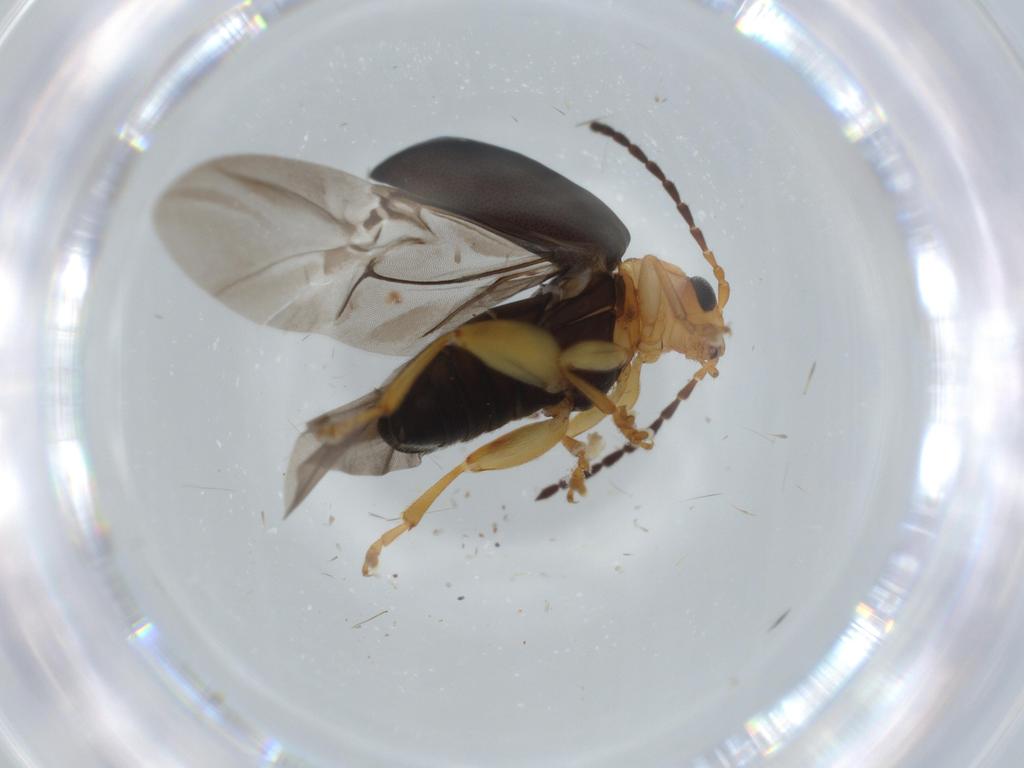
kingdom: Animalia
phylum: Arthropoda
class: Insecta
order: Coleoptera
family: Chrysomelidae
